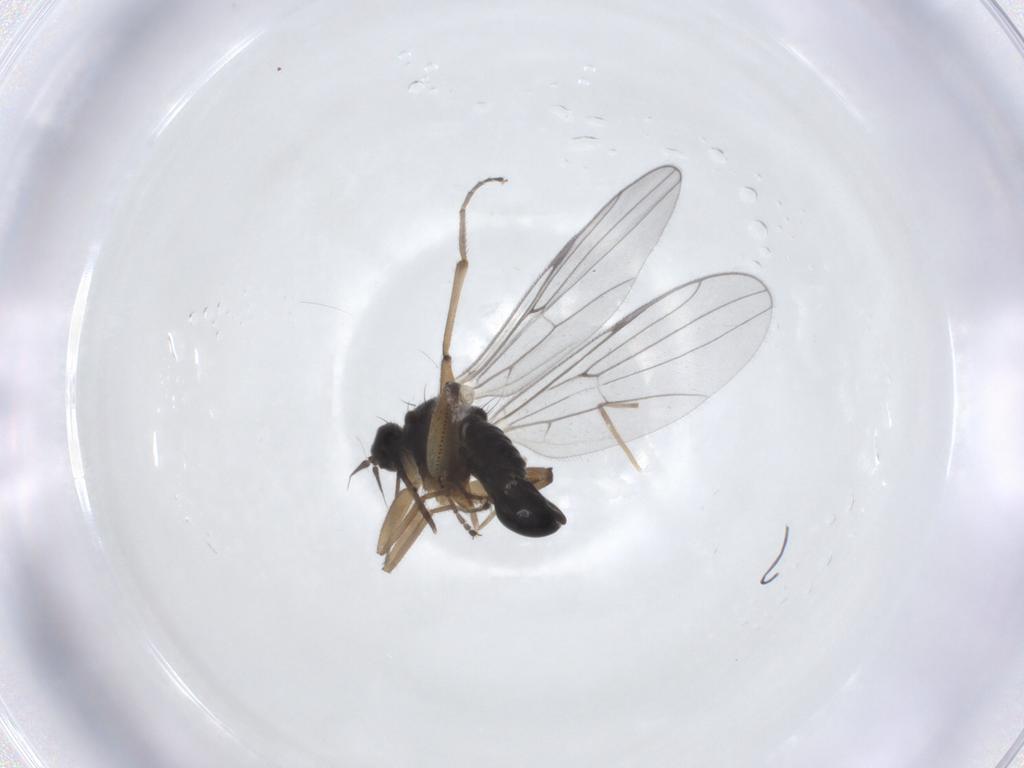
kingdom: Animalia
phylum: Arthropoda
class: Insecta
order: Diptera
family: Hybotidae
